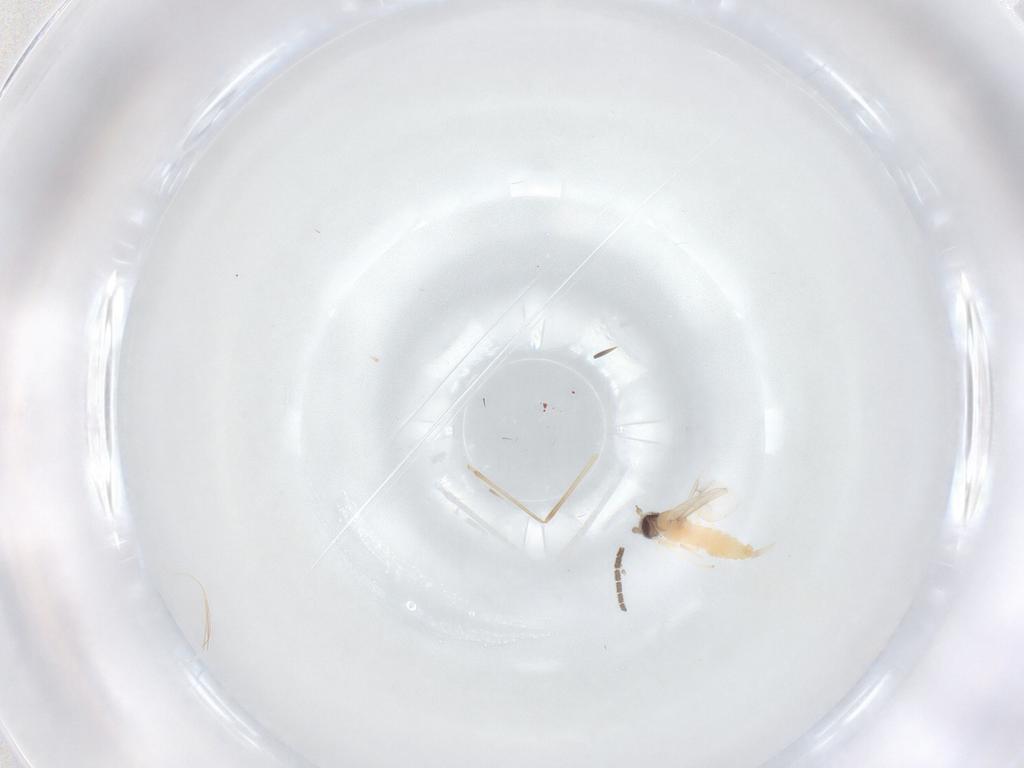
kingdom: Animalia
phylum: Arthropoda
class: Insecta
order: Diptera
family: Cecidomyiidae
